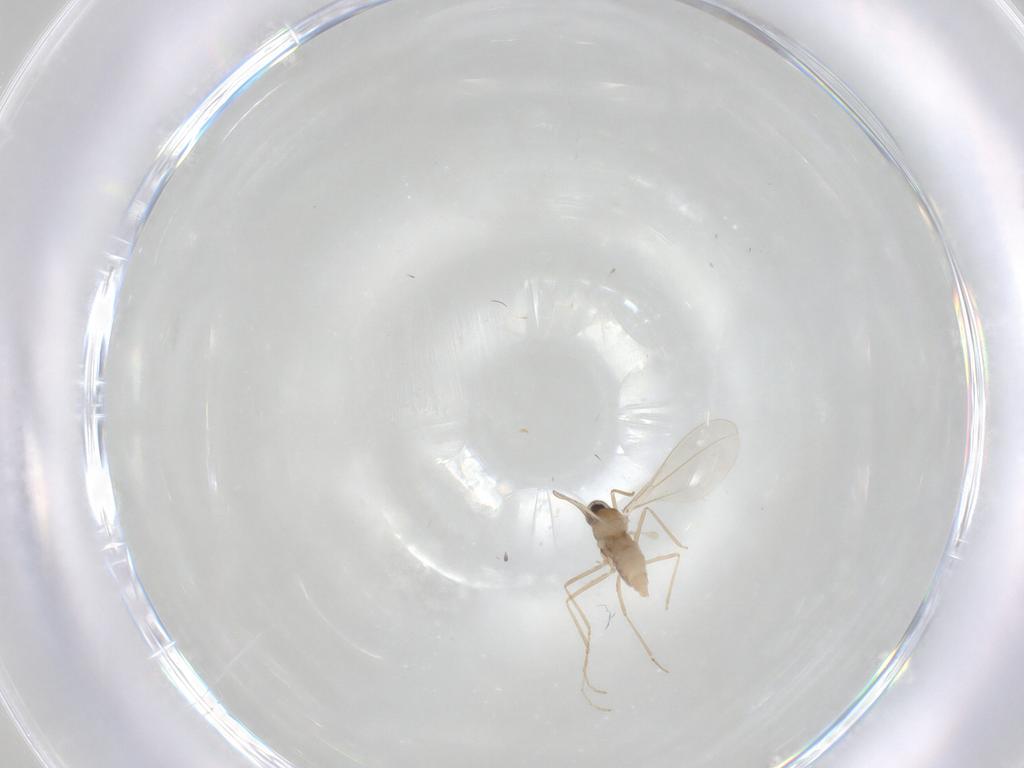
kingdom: Animalia
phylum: Arthropoda
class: Insecta
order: Diptera
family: Cecidomyiidae
